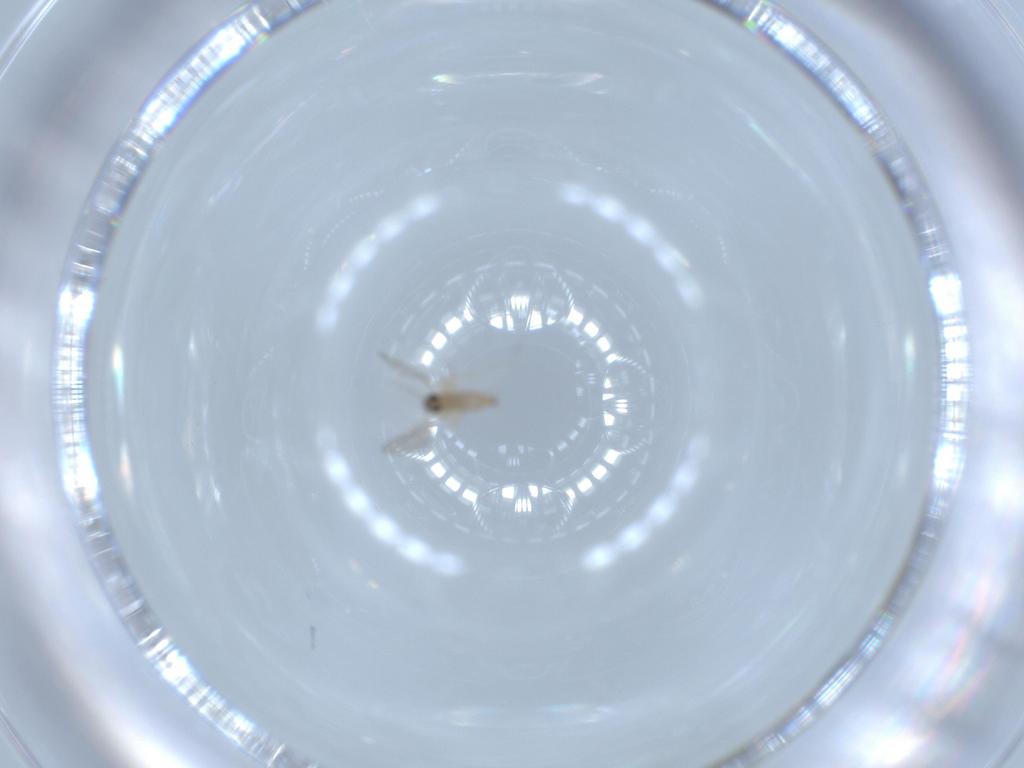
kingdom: Animalia
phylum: Arthropoda
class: Insecta
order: Diptera
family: Cecidomyiidae
